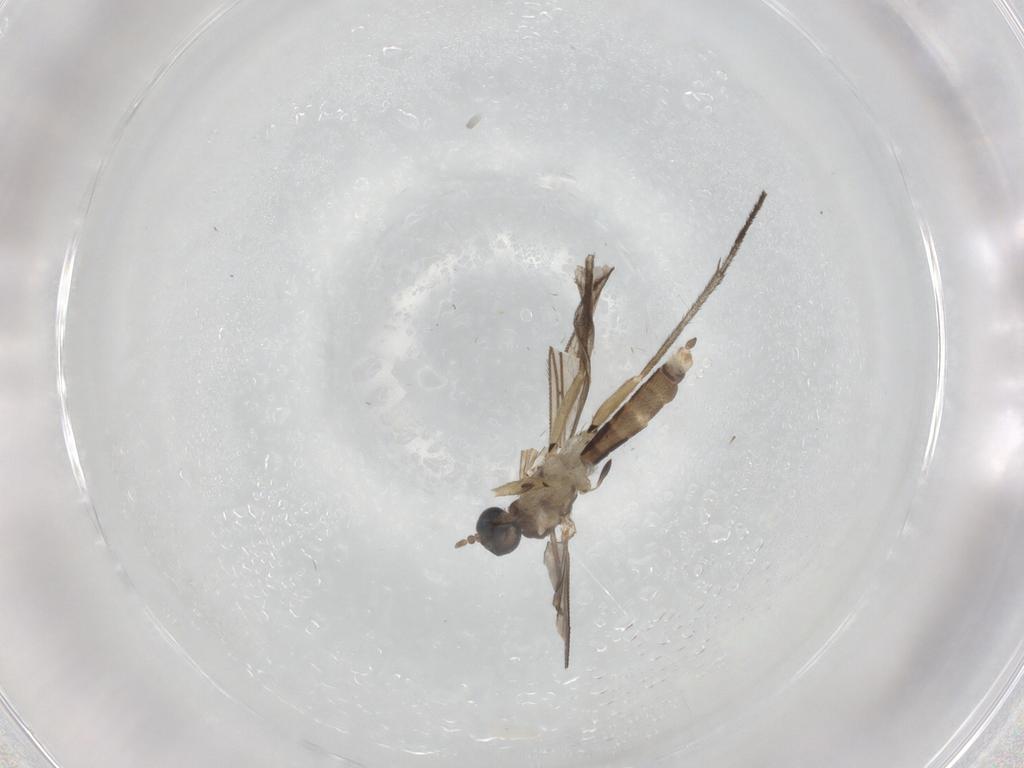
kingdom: Animalia
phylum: Arthropoda
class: Insecta
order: Diptera
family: Sciaridae
